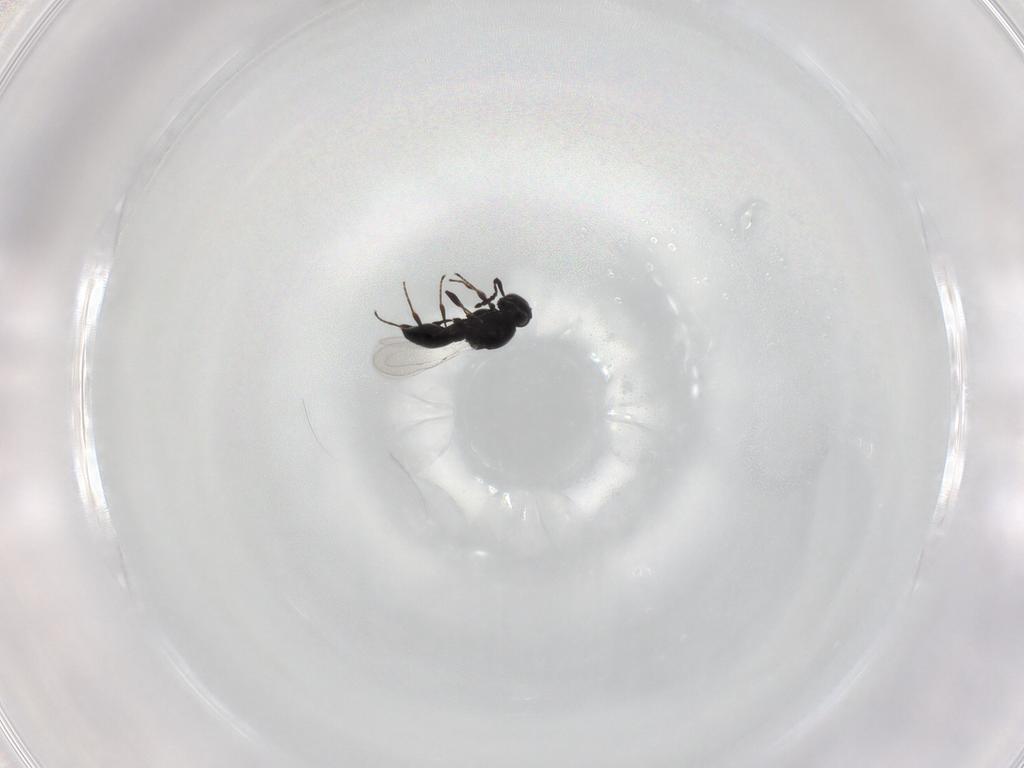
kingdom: Animalia
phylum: Arthropoda
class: Insecta
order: Hymenoptera
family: Platygastridae
